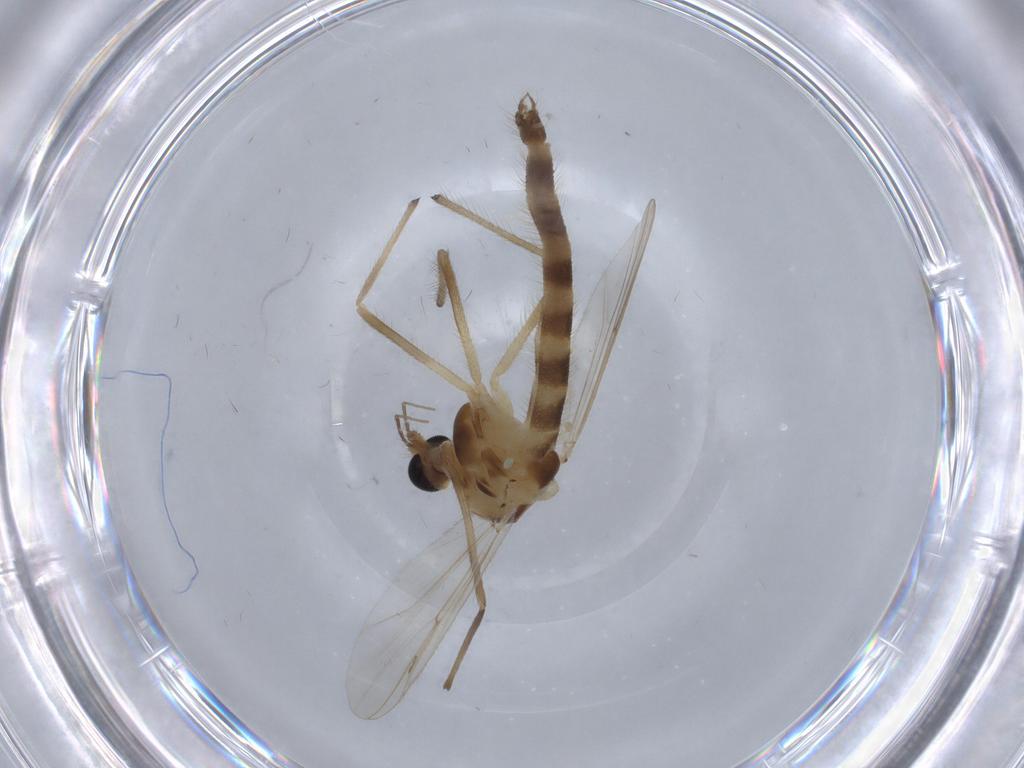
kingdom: Animalia
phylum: Arthropoda
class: Insecta
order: Diptera
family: Chironomidae
